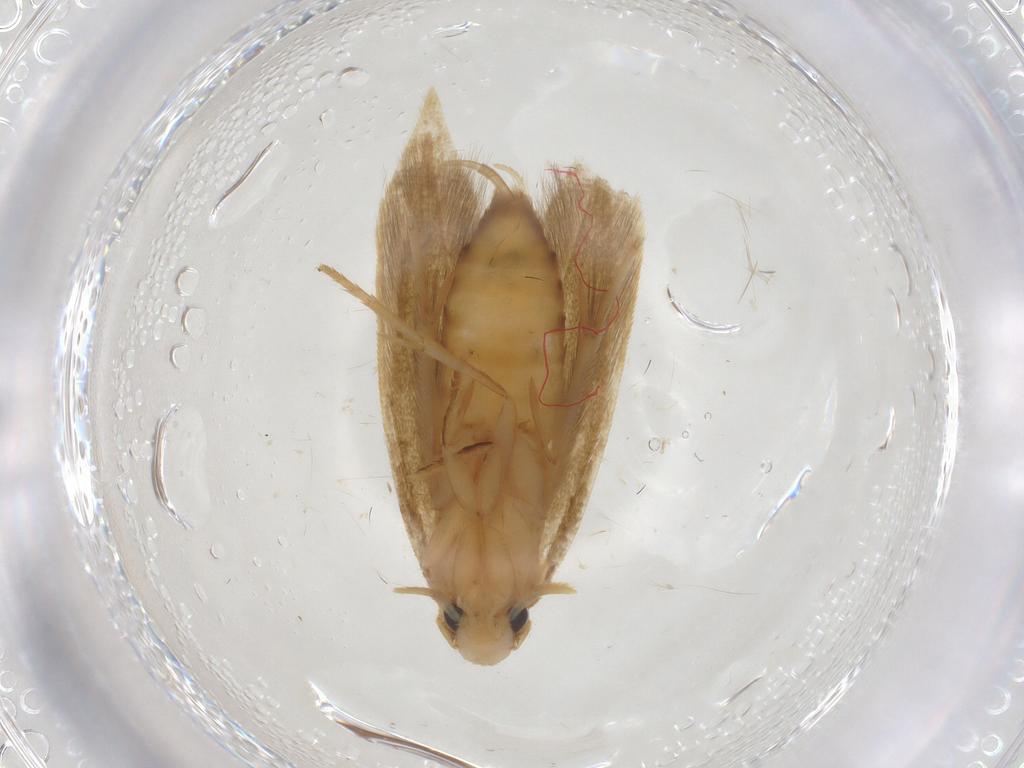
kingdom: Animalia
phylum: Arthropoda
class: Insecta
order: Lepidoptera
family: Tineidae
